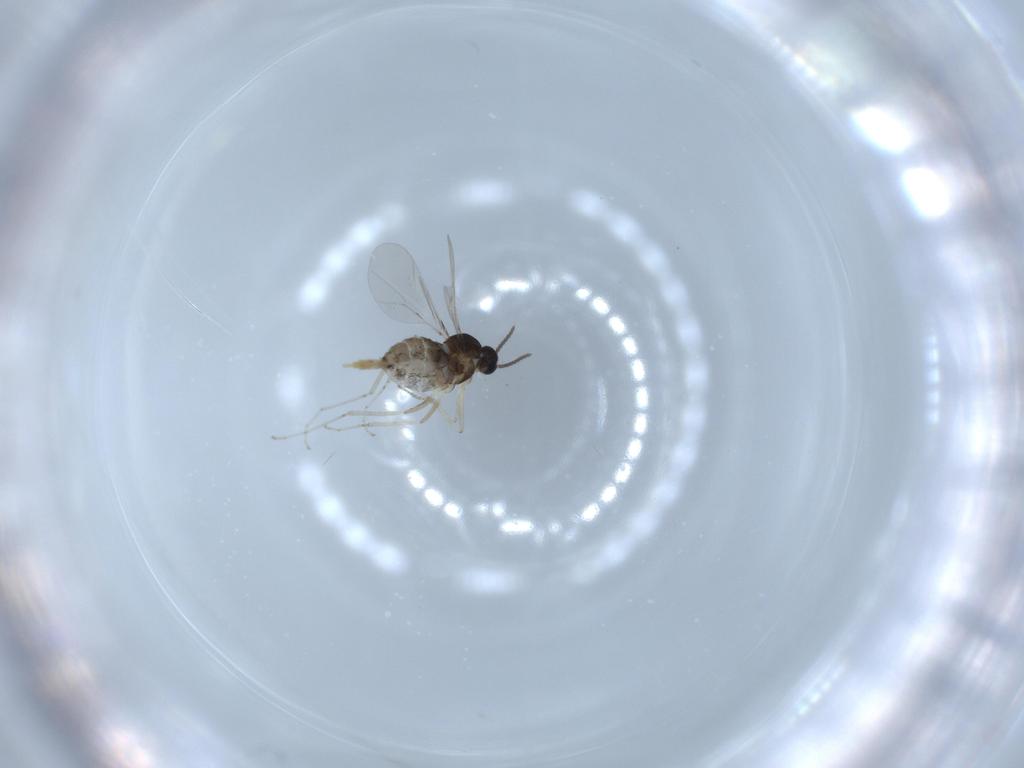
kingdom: Animalia
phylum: Arthropoda
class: Insecta
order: Diptera
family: Cecidomyiidae
